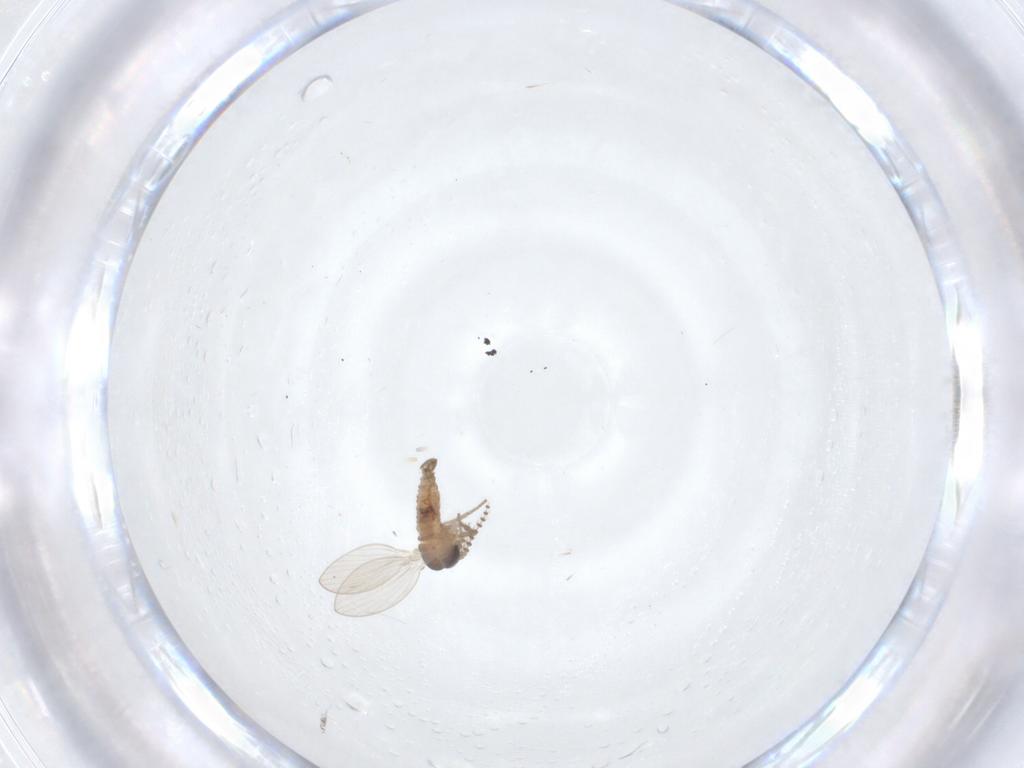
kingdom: Animalia
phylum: Arthropoda
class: Insecta
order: Diptera
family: Psychodidae
